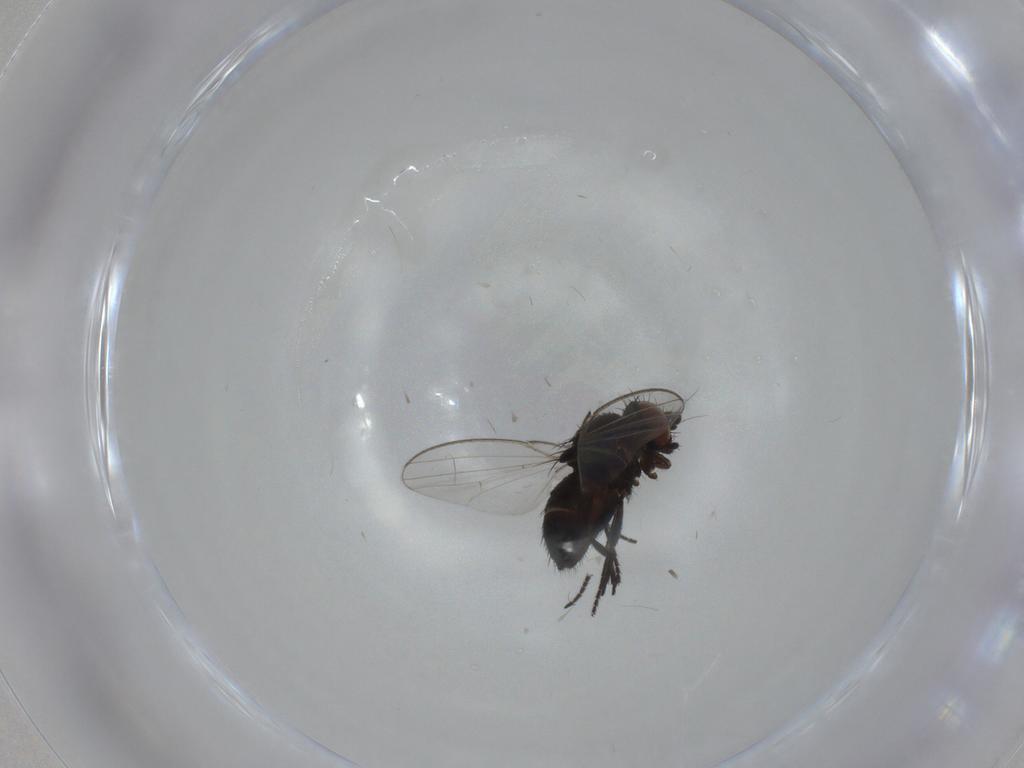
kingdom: Animalia
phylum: Arthropoda
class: Insecta
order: Diptera
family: Milichiidae
